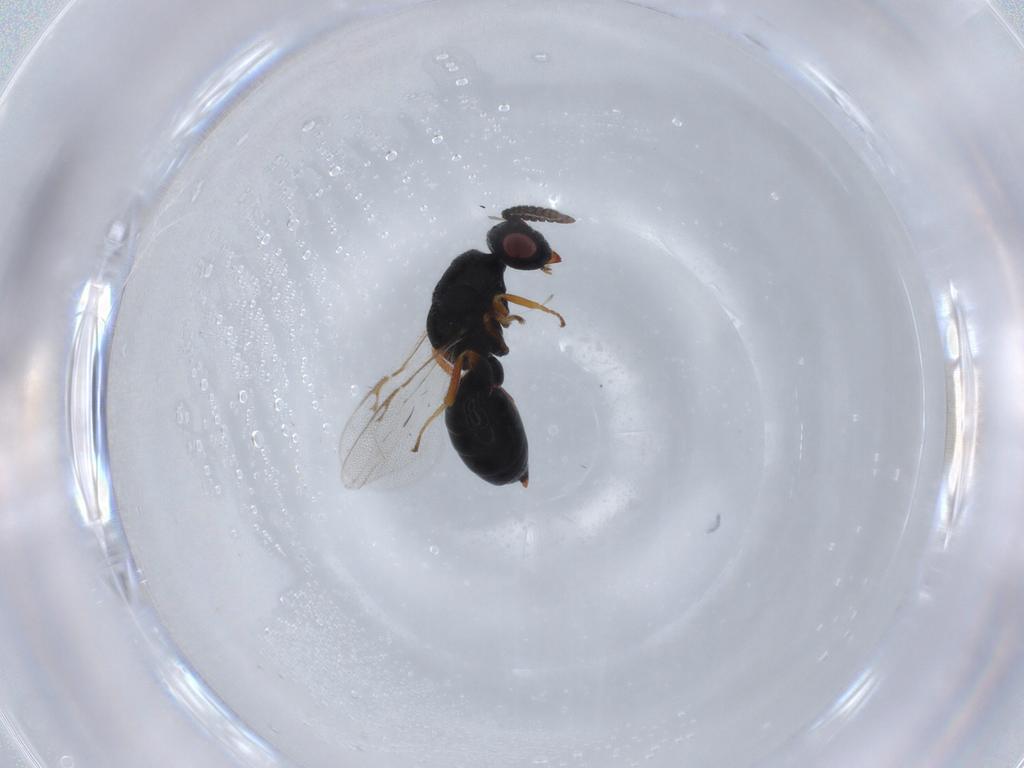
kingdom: Animalia
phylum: Arthropoda
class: Insecta
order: Hymenoptera
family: Eurytomidae
